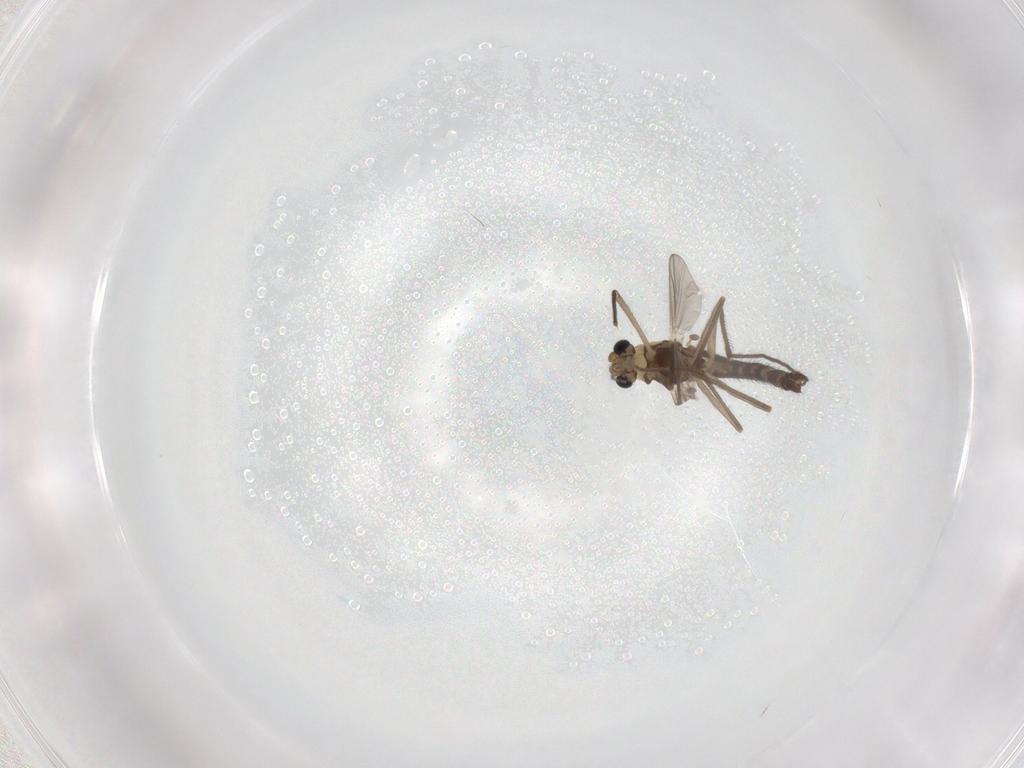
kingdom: Animalia
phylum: Arthropoda
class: Insecta
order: Diptera
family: Chironomidae
